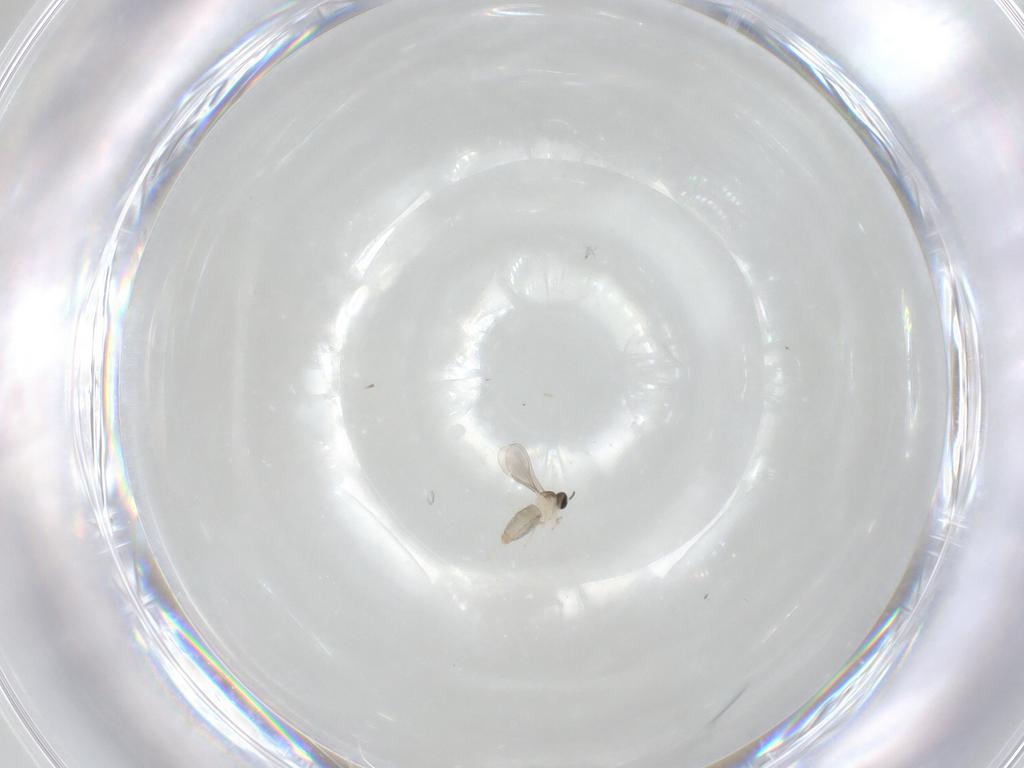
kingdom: Animalia
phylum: Arthropoda
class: Insecta
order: Diptera
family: Cecidomyiidae
